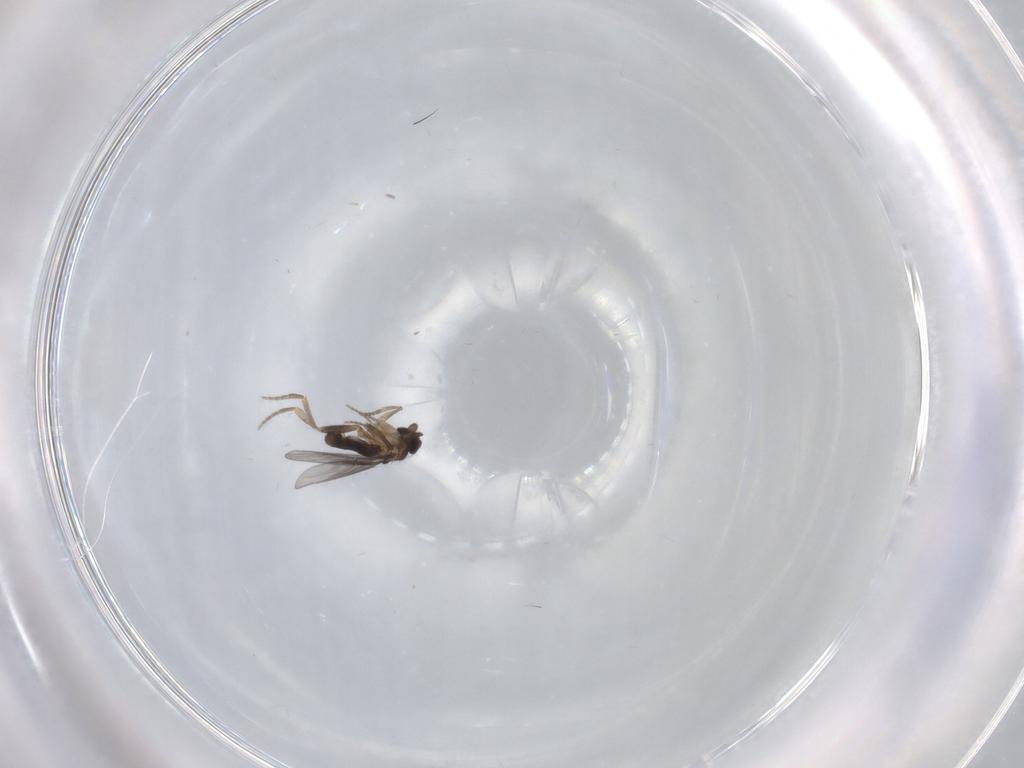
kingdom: Animalia
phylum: Arthropoda
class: Insecta
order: Diptera
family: Dolichopodidae
